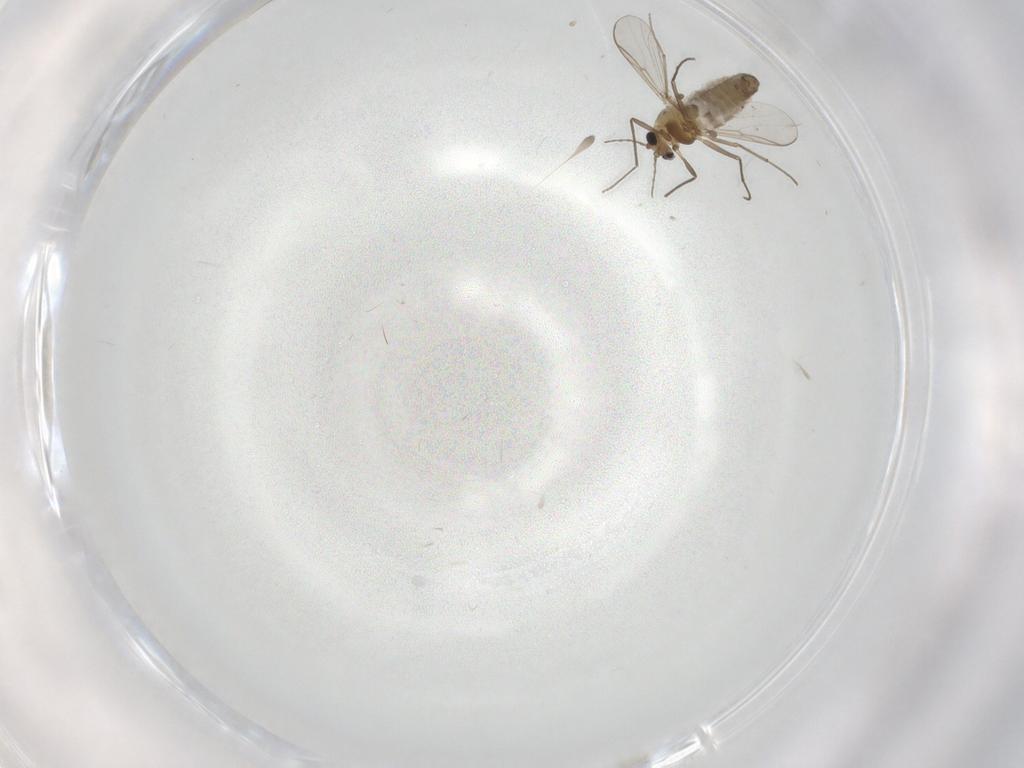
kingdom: Animalia
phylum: Arthropoda
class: Insecta
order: Diptera
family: Chironomidae
